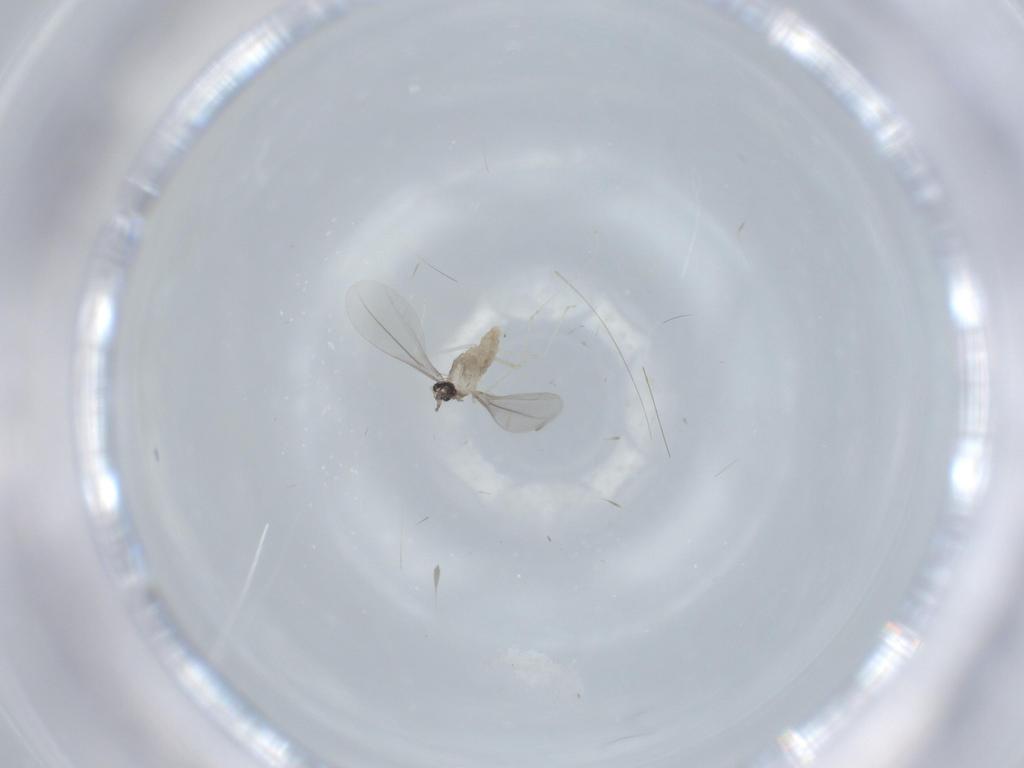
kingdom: Animalia
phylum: Arthropoda
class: Insecta
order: Diptera
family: Cecidomyiidae
